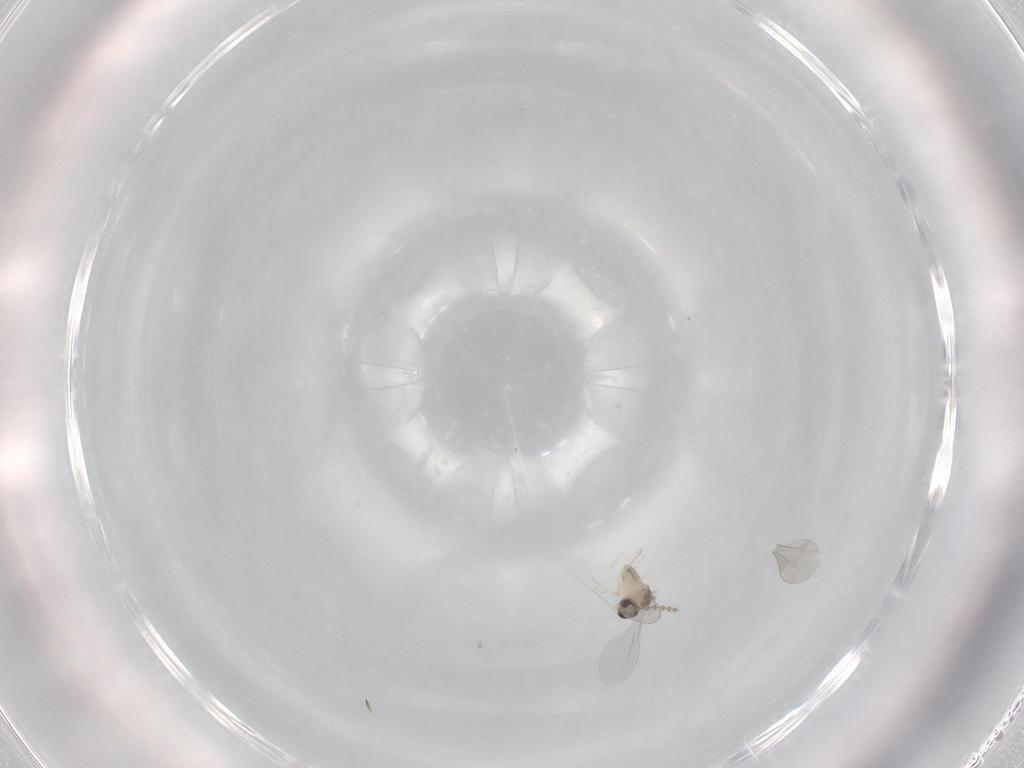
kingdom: Animalia
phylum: Arthropoda
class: Insecta
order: Diptera
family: Cecidomyiidae
